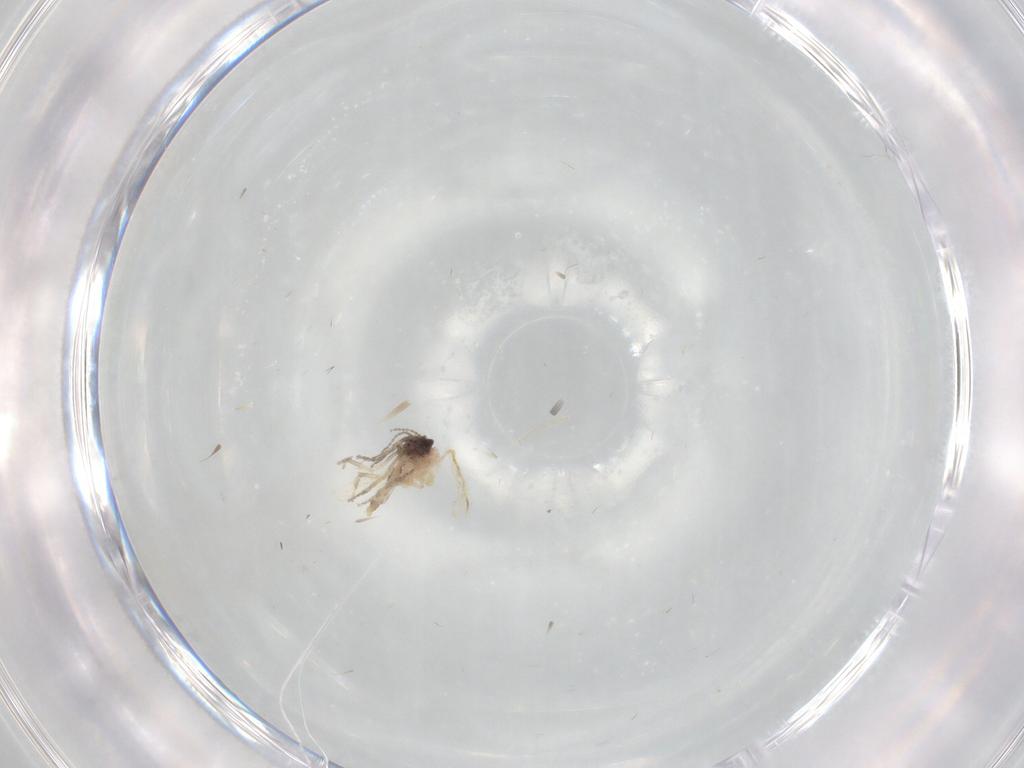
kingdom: Animalia
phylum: Arthropoda
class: Insecta
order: Diptera
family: Ceratopogonidae
